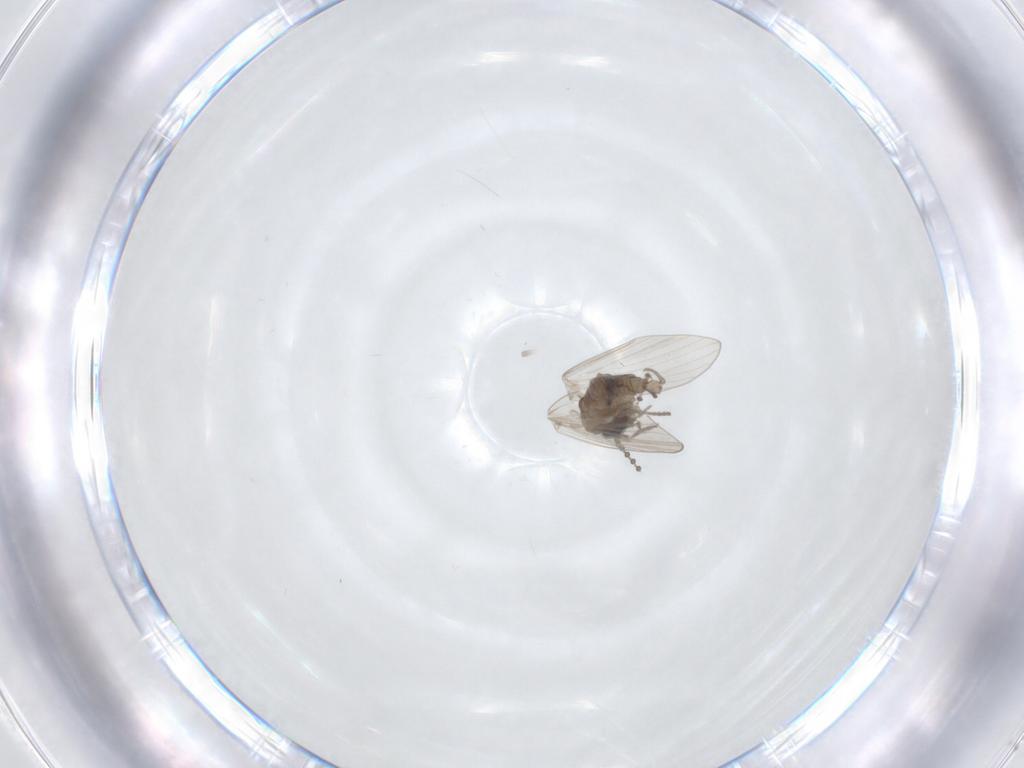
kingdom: Animalia
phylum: Arthropoda
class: Insecta
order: Diptera
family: Psychodidae
